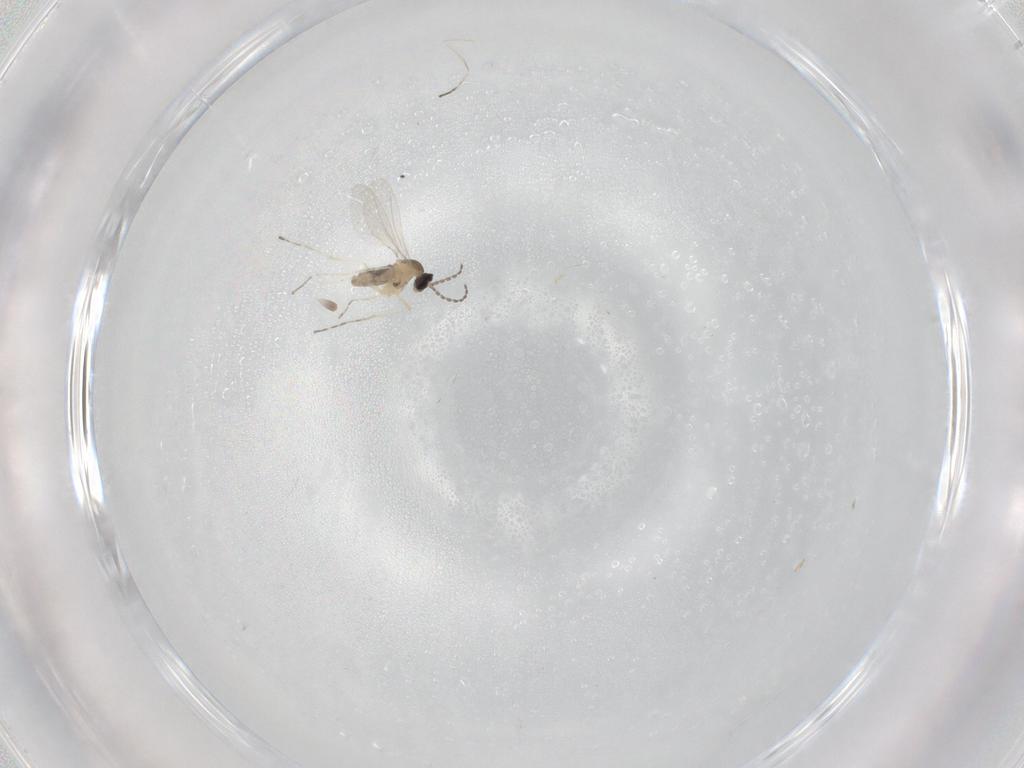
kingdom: Animalia
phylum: Arthropoda
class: Insecta
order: Diptera
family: Cecidomyiidae
